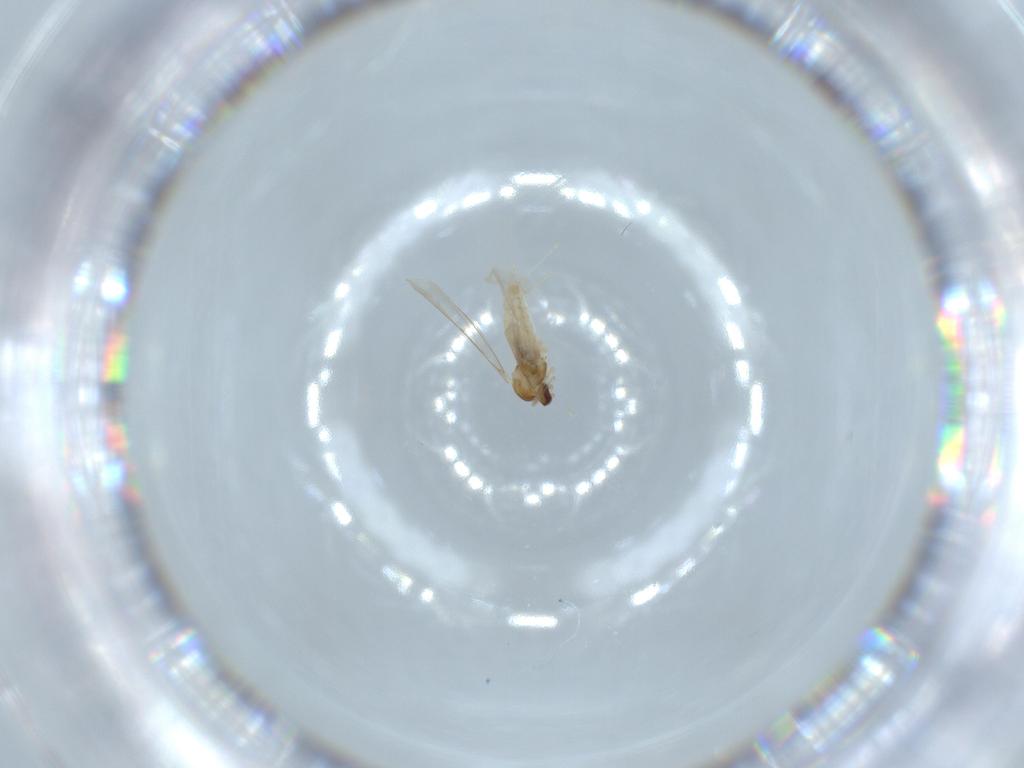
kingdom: Animalia
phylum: Arthropoda
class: Insecta
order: Diptera
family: Cecidomyiidae
